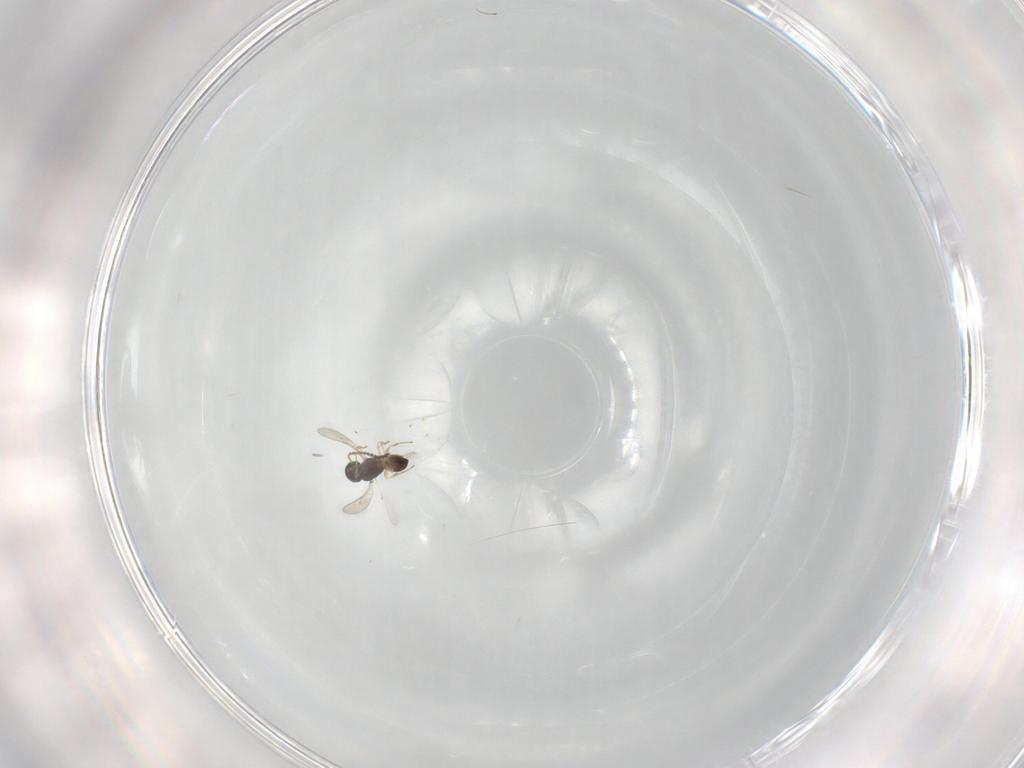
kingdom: Animalia
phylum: Arthropoda
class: Insecta
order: Hymenoptera
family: Scelionidae
